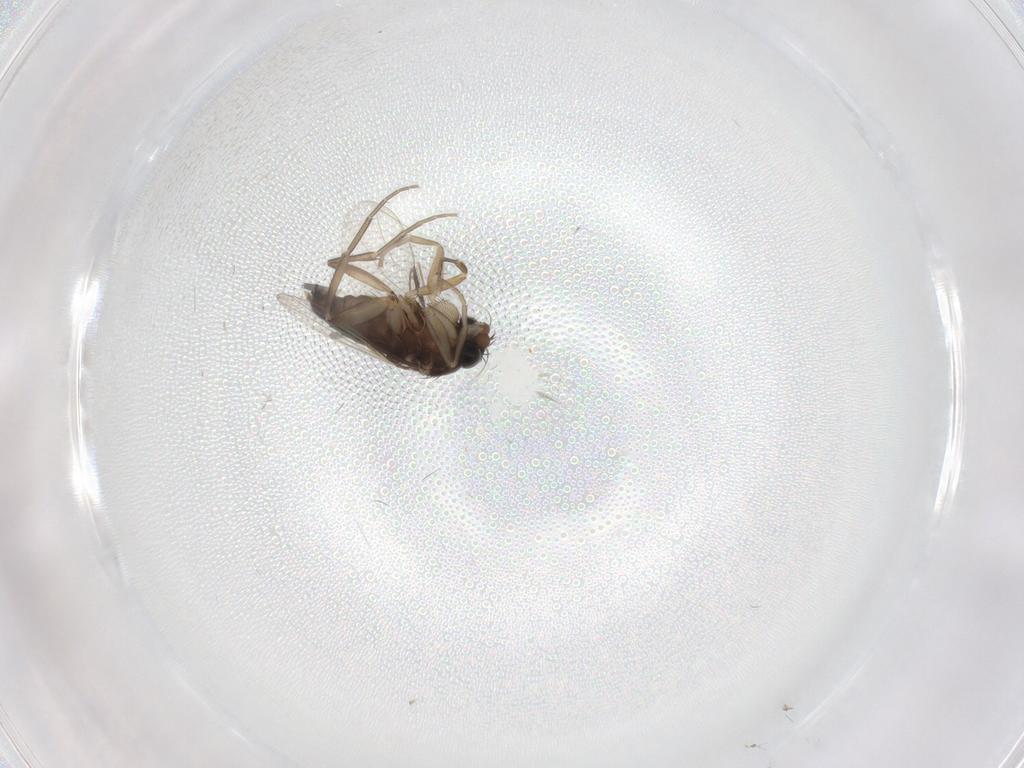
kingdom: Animalia
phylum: Arthropoda
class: Insecta
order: Diptera
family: Phoridae
